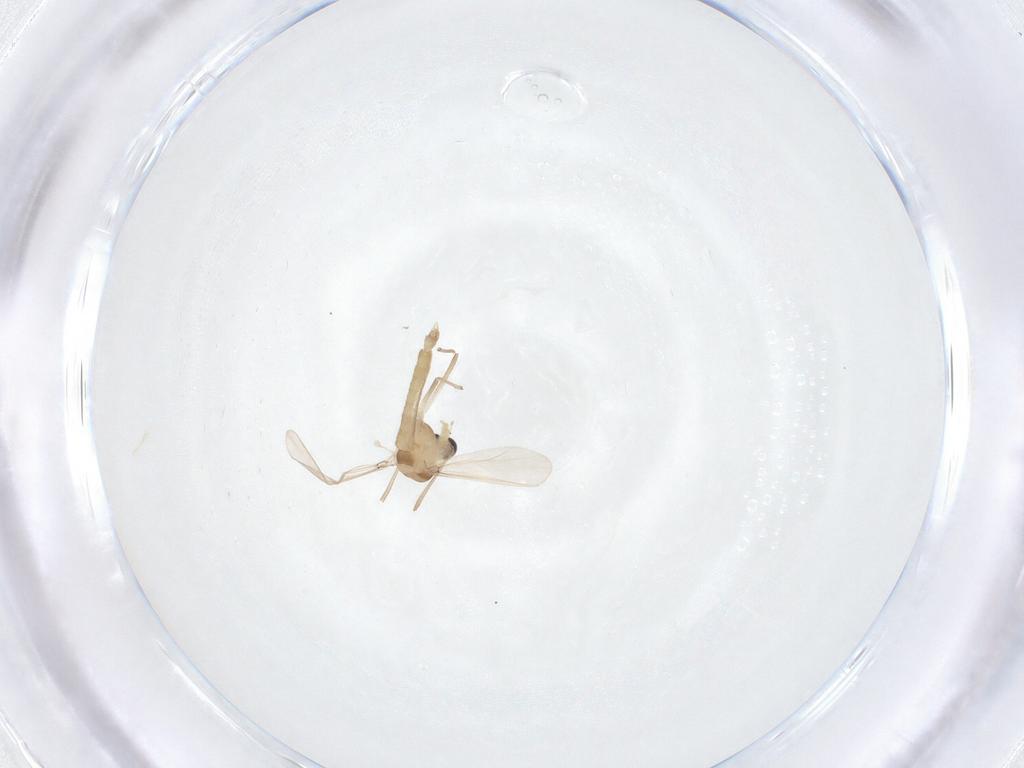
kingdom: Animalia
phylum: Arthropoda
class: Insecta
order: Diptera
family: Chironomidae
